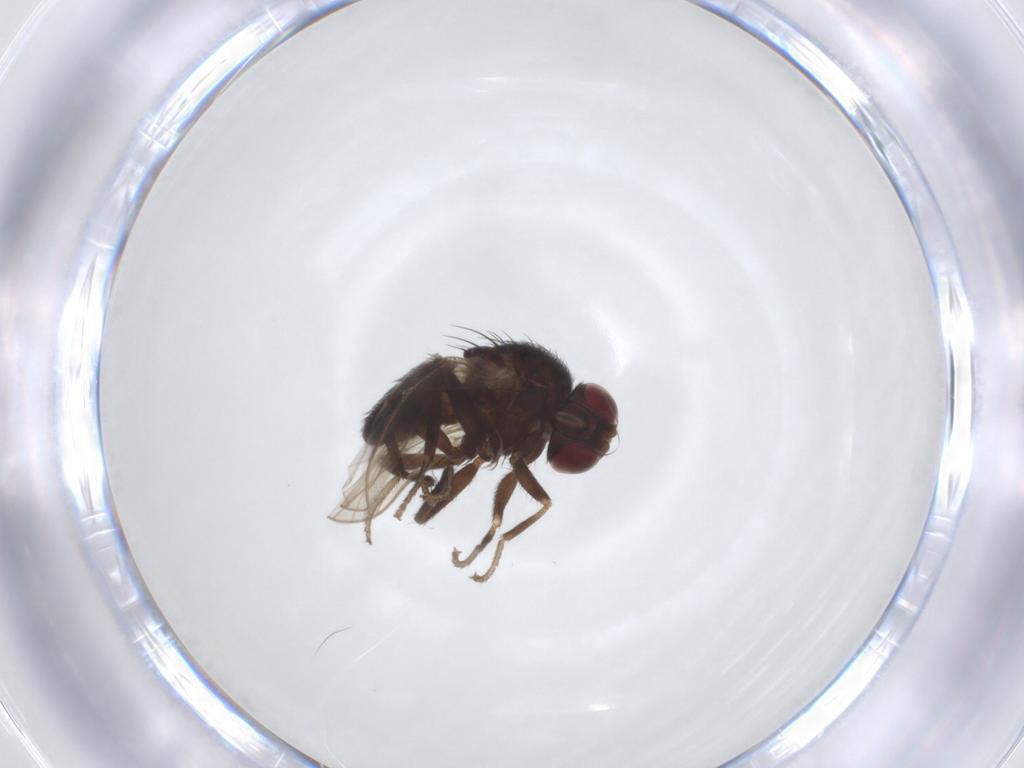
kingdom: Animalia
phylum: Arthropoda
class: Insecta
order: Diptera
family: Agromyzidae
